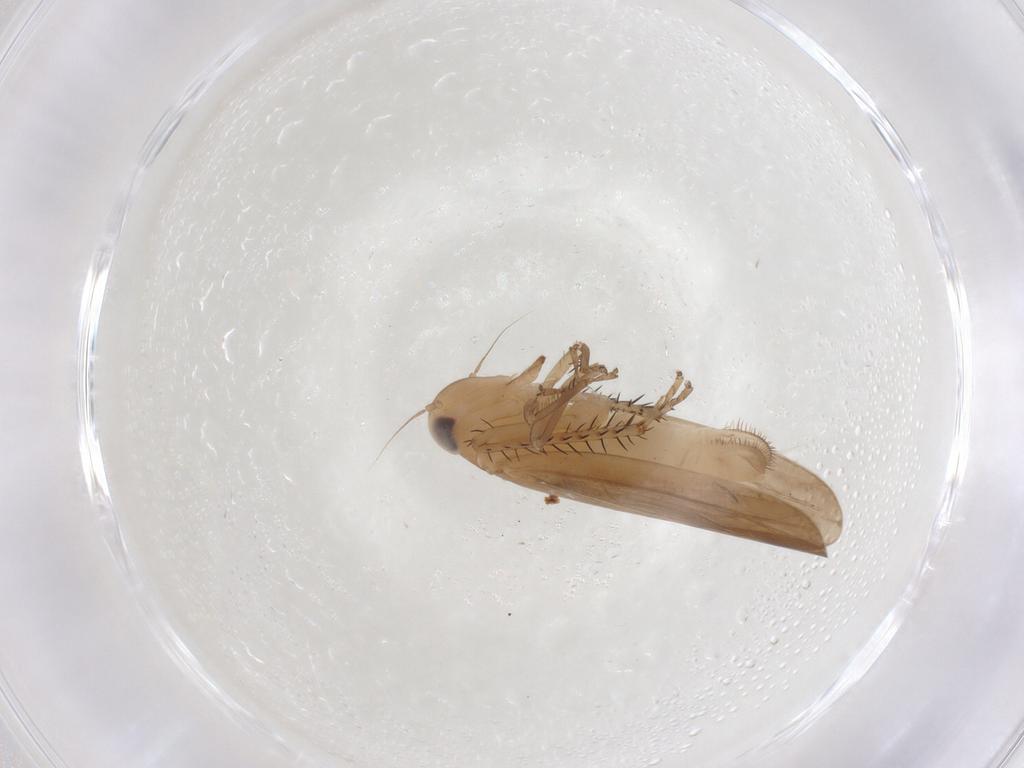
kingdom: Animalia
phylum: Arthropoda
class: Insecta
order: Hemiptera
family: Cicadellidae
